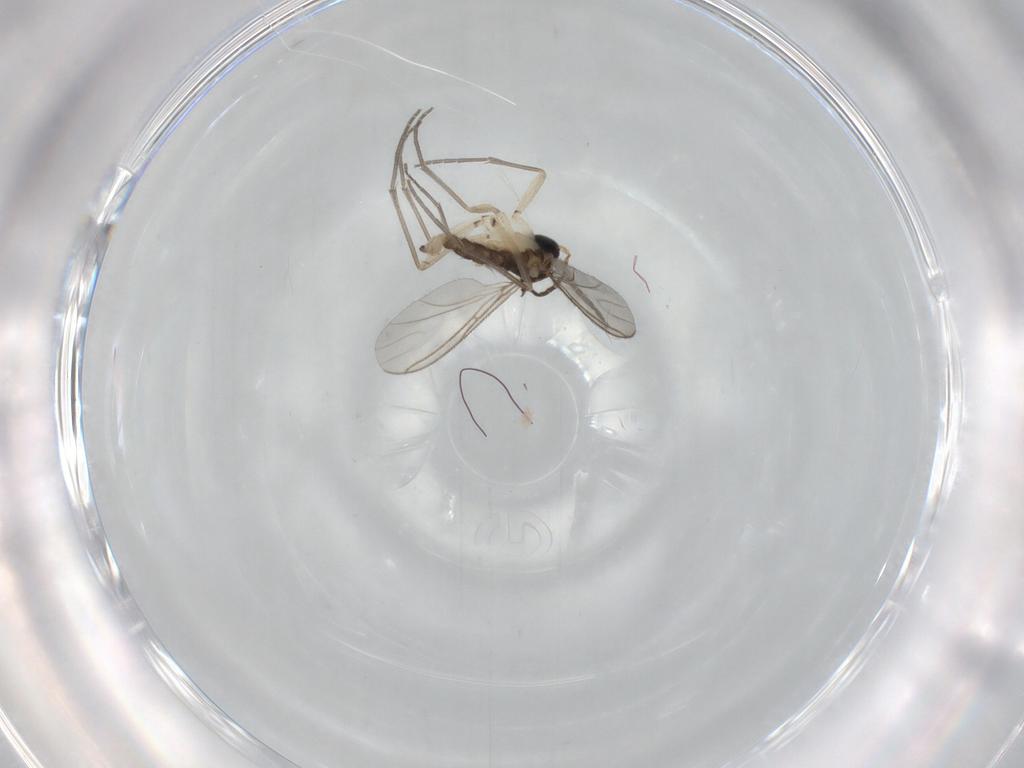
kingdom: Animalia
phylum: Arthropoda
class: Insecta
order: Diptera
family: Sciaridae
